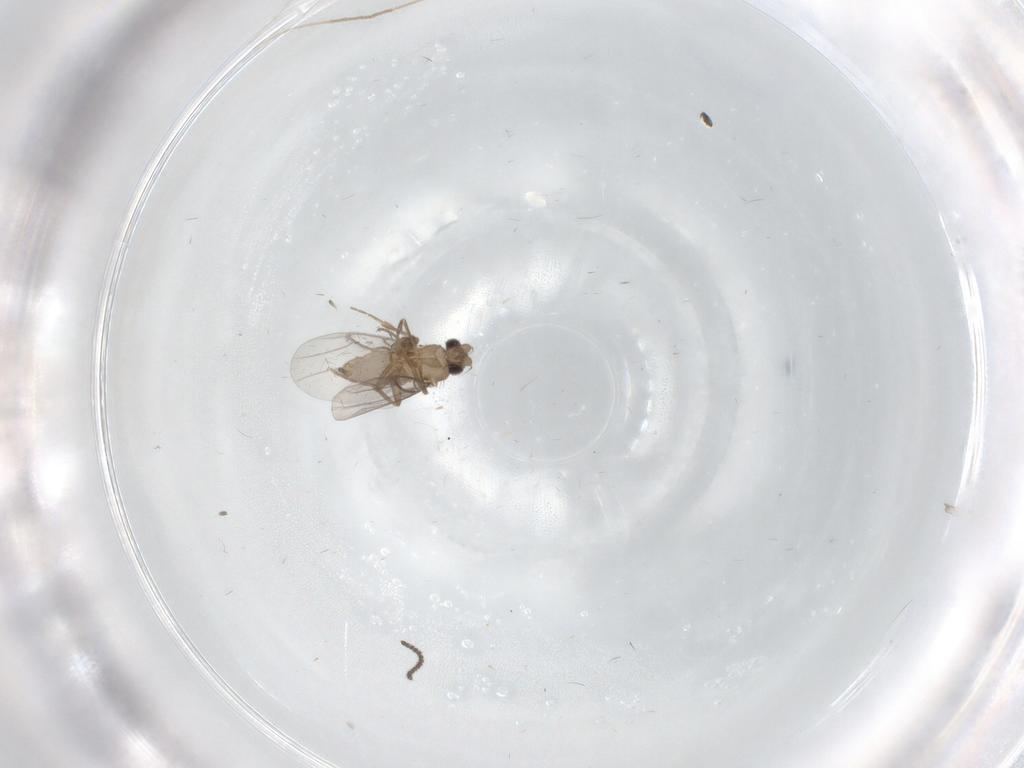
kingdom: Animalia
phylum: Arthropoda
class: Insecta
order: Diptera
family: Chironomidae
